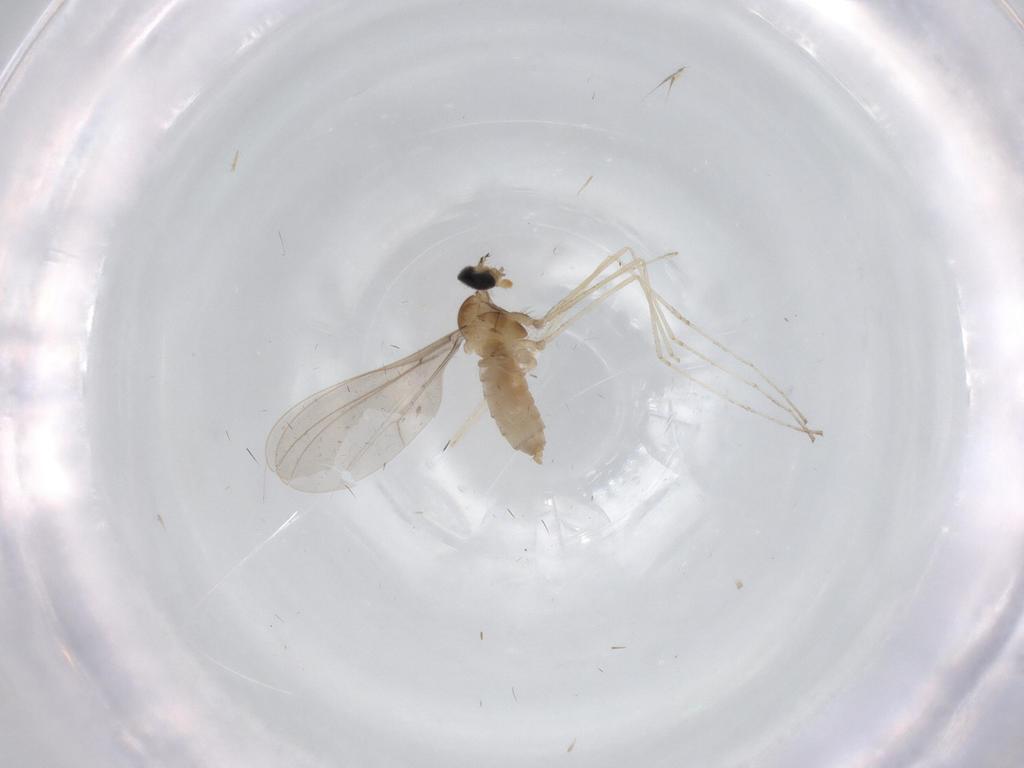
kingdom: Animalia
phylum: Arthropoda
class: Insecta
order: Diptera
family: Cecidomyiidae
